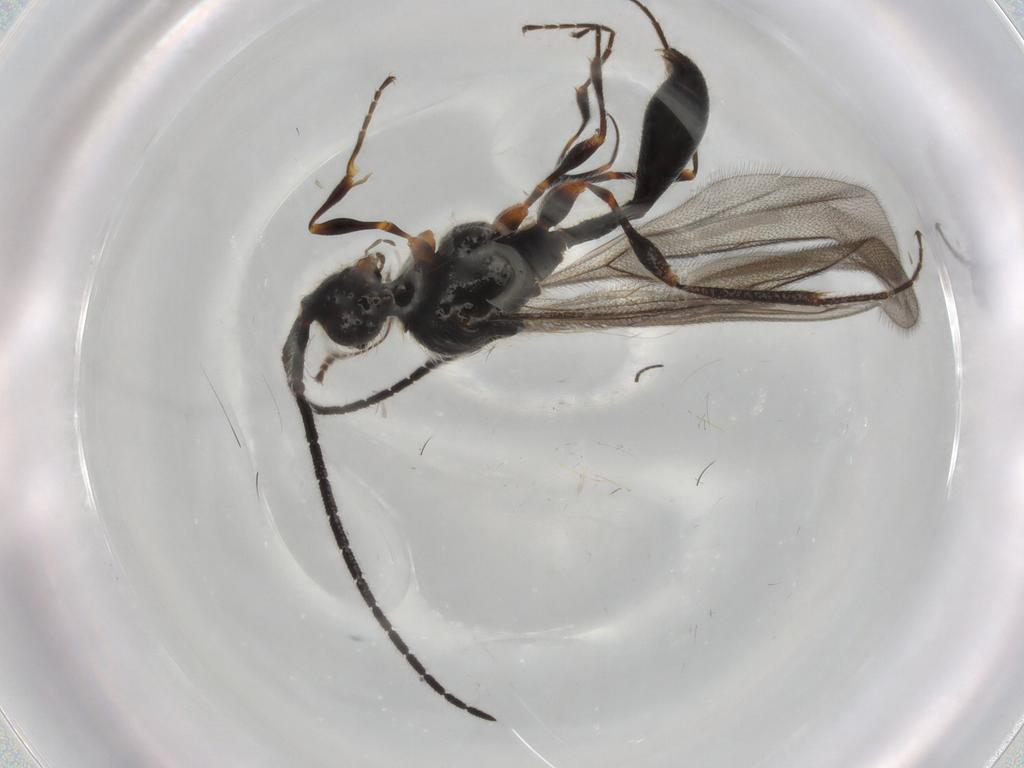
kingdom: Animalia
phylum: Arthropoda
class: Insecta
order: Hymenoptera
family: Diapriidae
